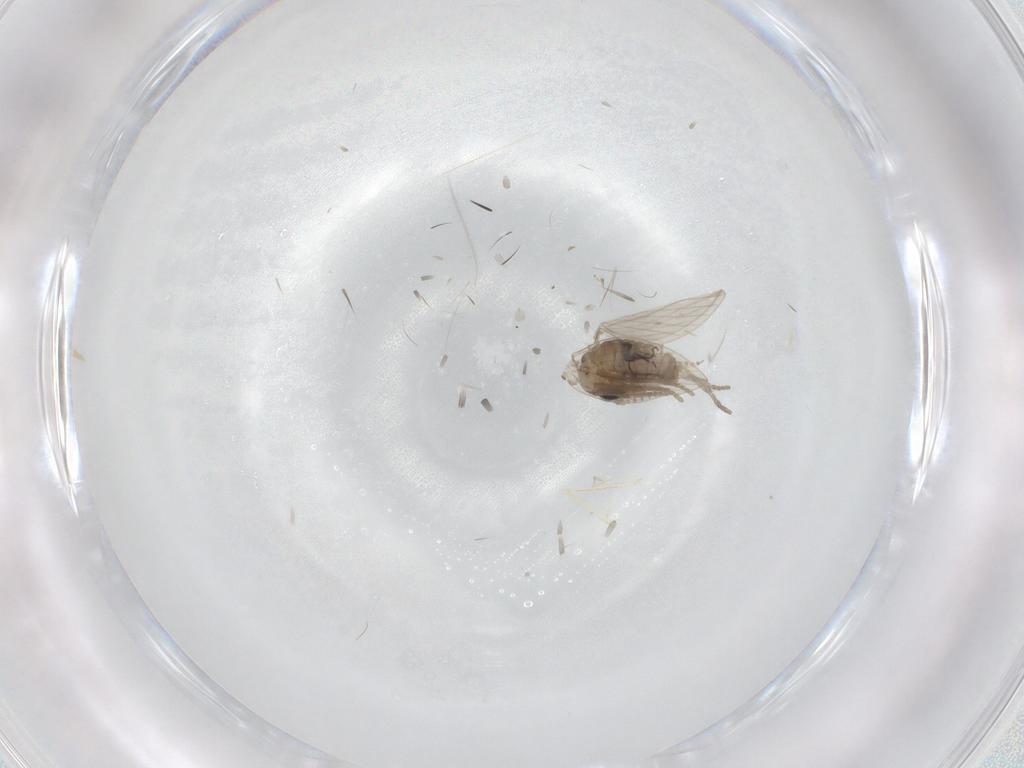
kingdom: Animalia
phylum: Arthropoda
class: Insecta
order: Diptera
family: Psychodidae
